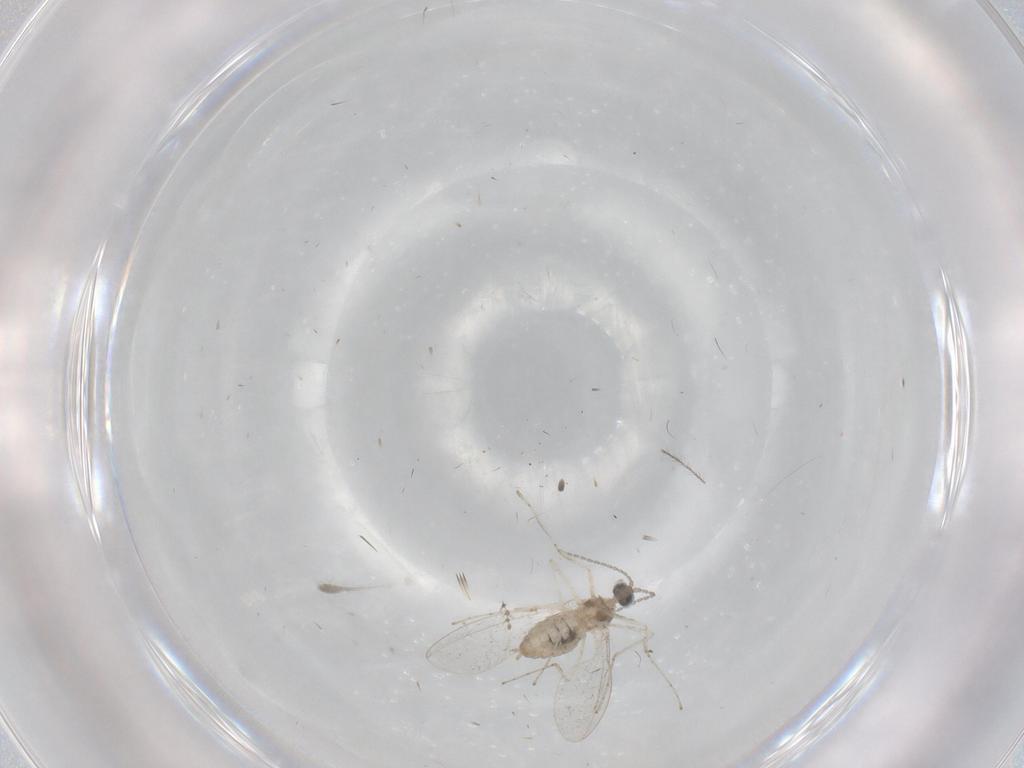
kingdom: Animalia
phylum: Arthropoda
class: Insecta
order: Diptera
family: Cecidomyiidae
